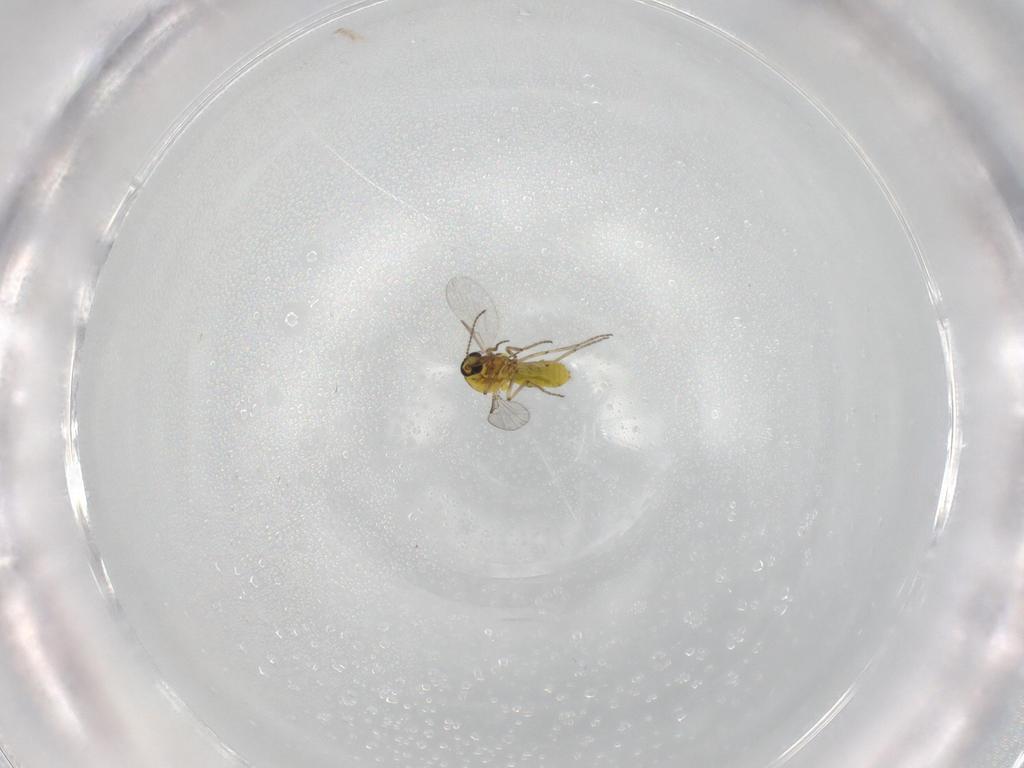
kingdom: Animalia
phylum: Arthropoda
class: Insecta
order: Diptera
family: Ceratopogonidae
